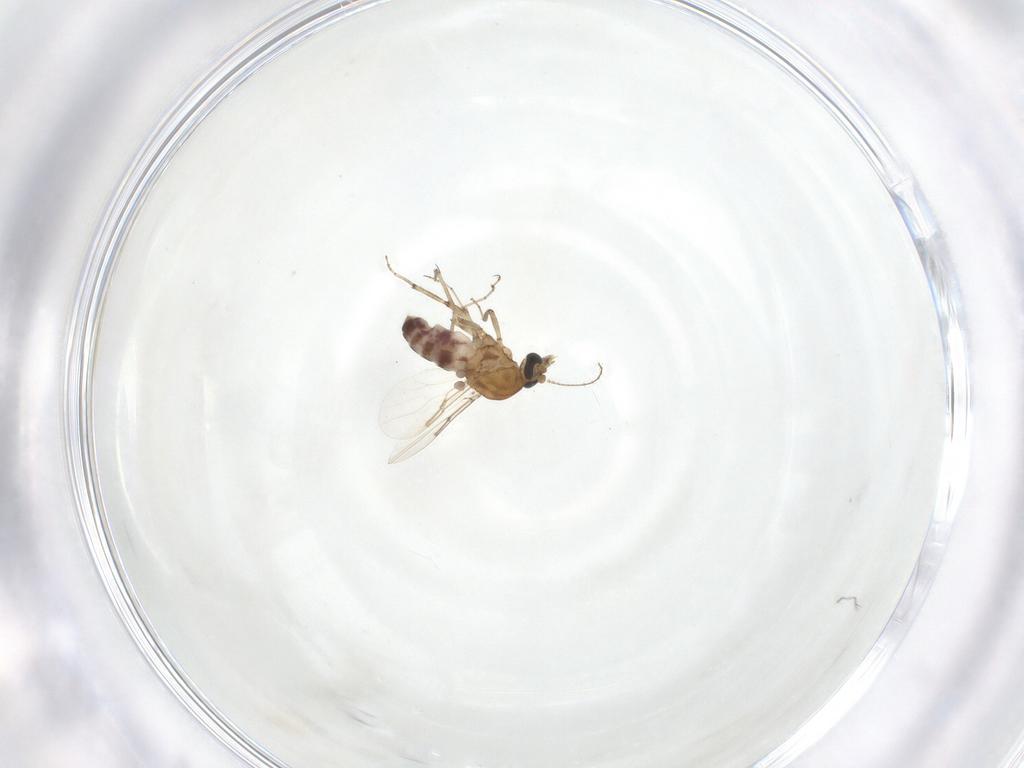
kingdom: Animalia
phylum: Arthropoda
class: Insecta
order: Diptera
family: Ceratopogonidae
